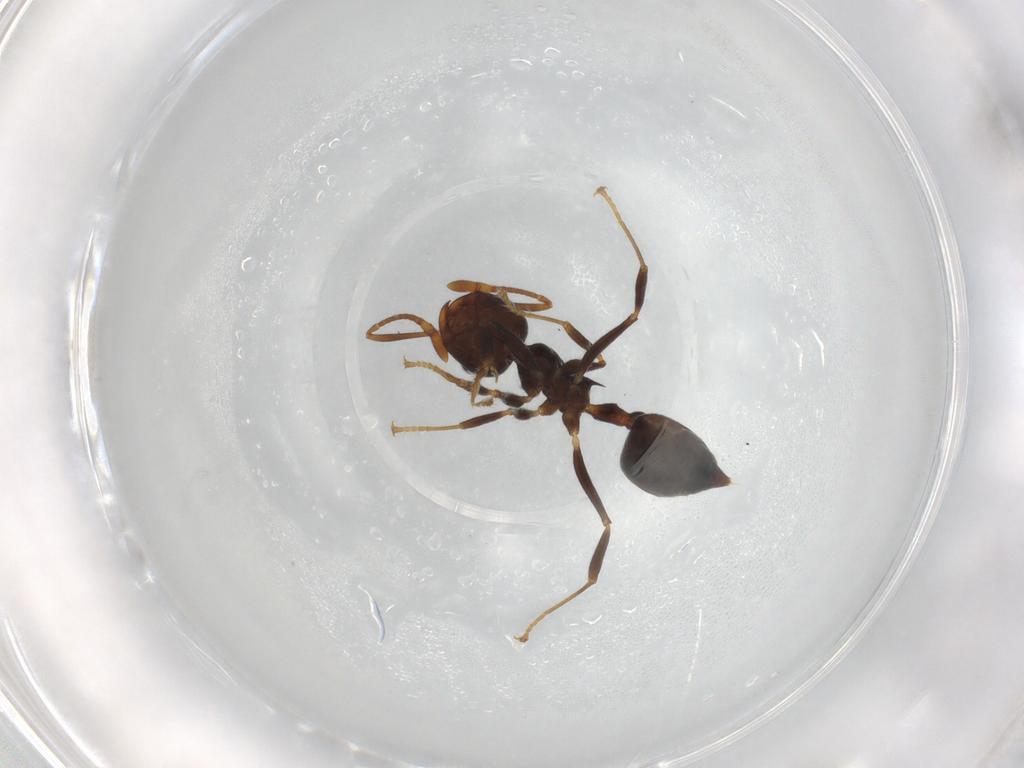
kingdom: Animalia
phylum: Arthropoda
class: Insecta
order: Hymenoptera
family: Formicidae
